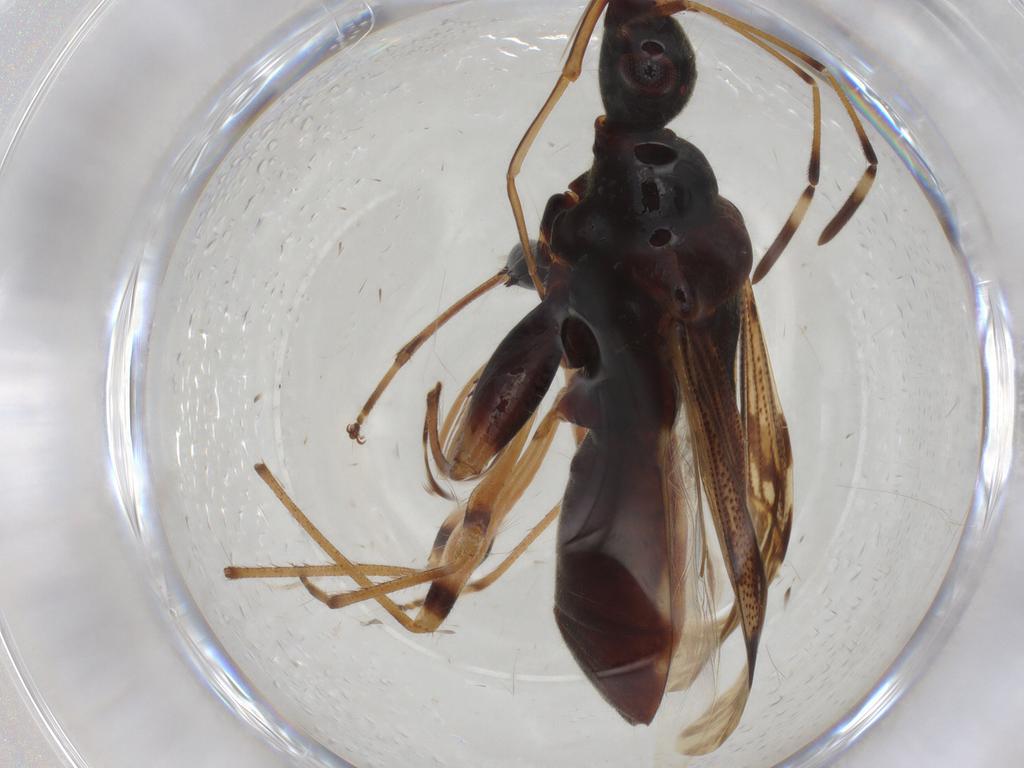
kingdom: Animalia
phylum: Arthropoda
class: Insecta
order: Hemiptera
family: Rhyparochromidae
